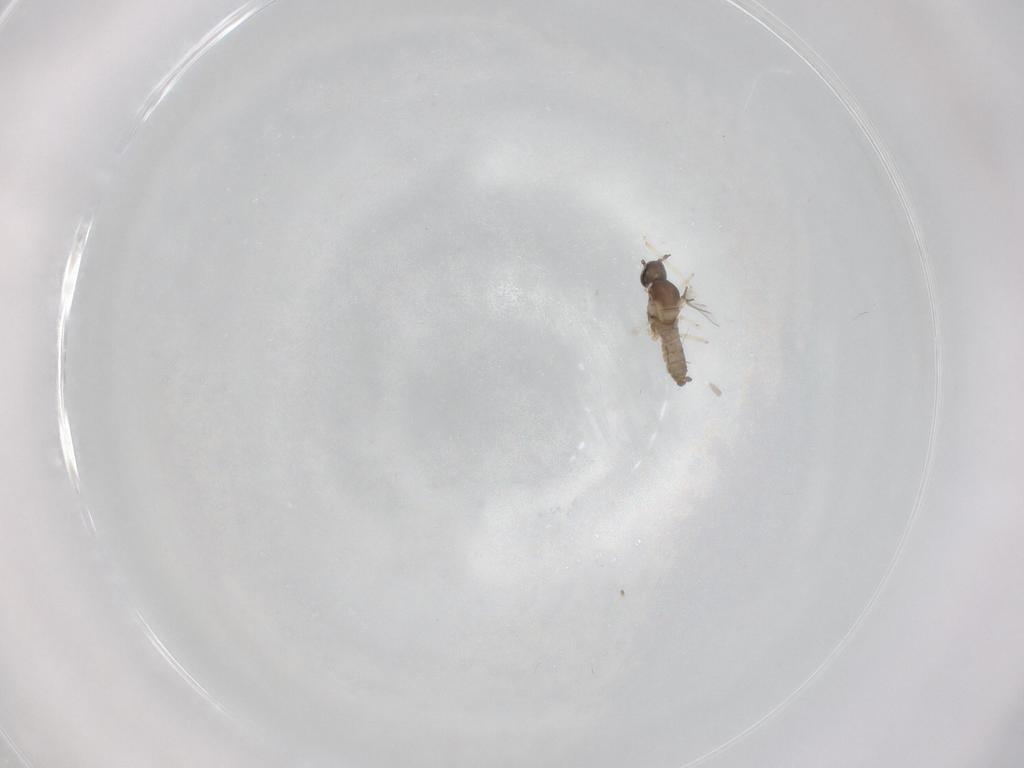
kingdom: Animalia
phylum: Arthropoda
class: Insecta
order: Diptera
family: Cecidomyiidae
